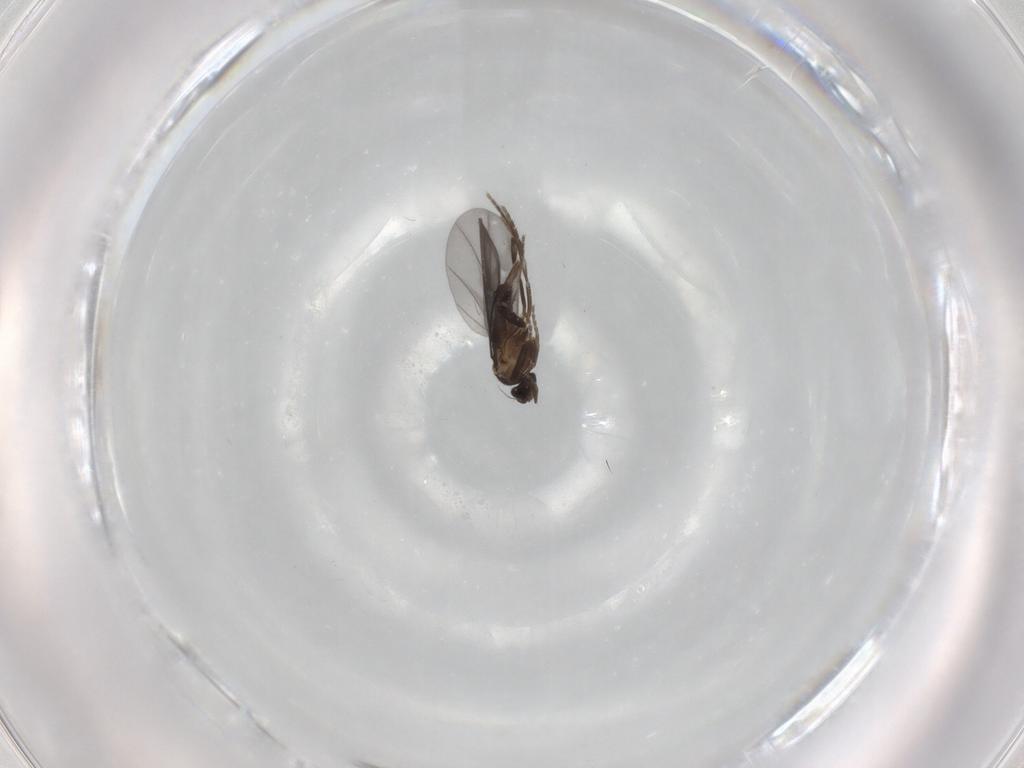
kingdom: Animalia
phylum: Arthropoda
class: Insecta
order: Diptera
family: Phoridae
